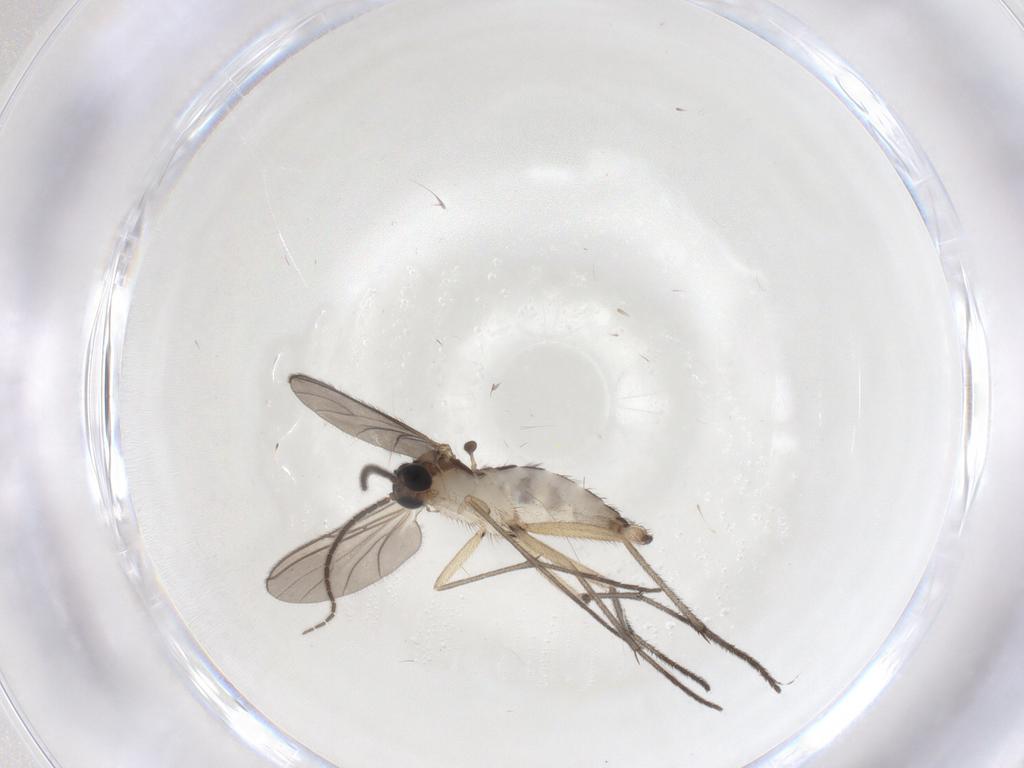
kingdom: Animalia
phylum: Arthropoda
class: Insecta
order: Diptera
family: Sciaridae
